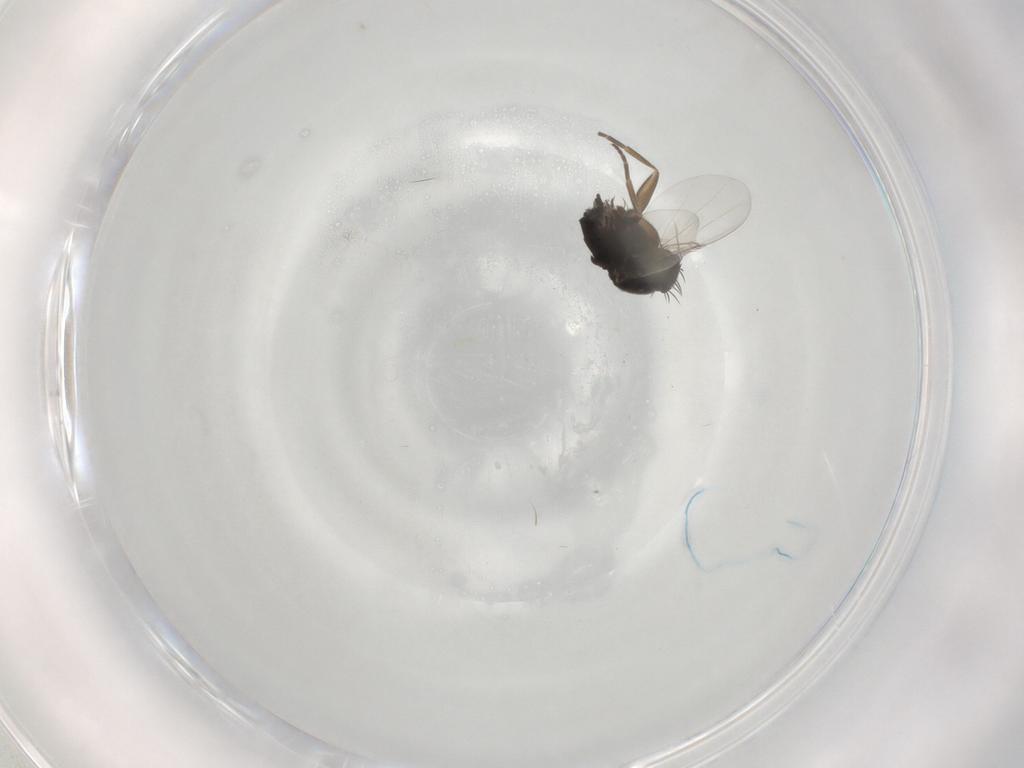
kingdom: Animalia
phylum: Arthropoda
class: Insecta
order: Diptera
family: Phoridae
